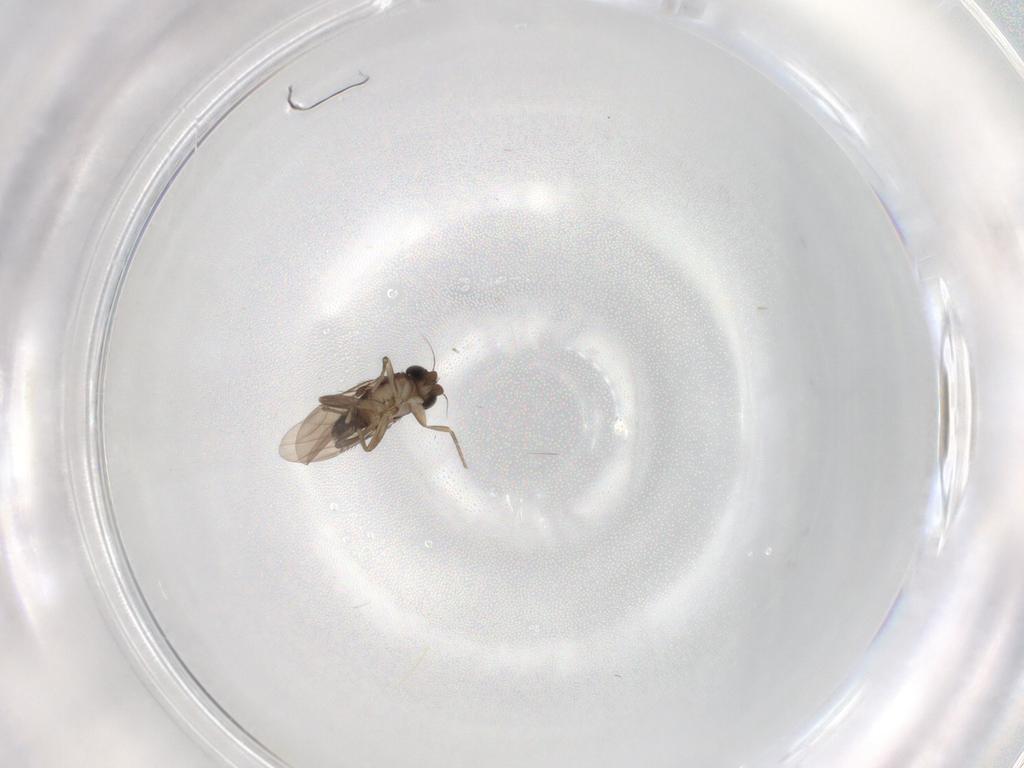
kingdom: Animalia
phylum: Arthropoda
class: Insecta
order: Diptera
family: Phoridae
